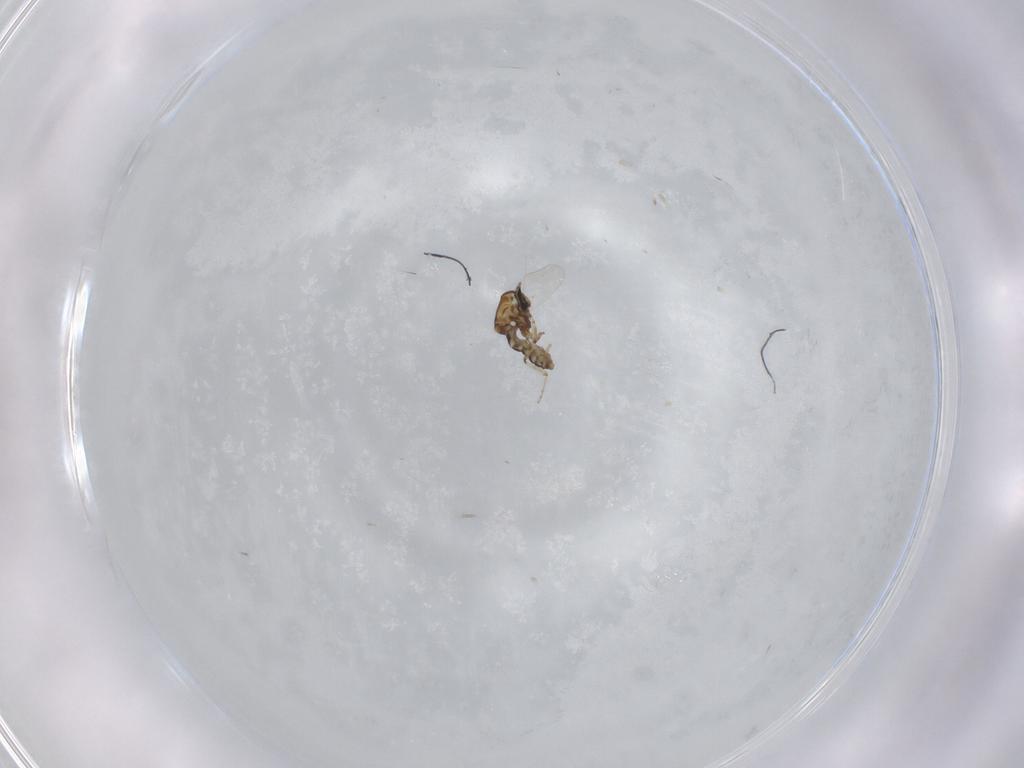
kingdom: Animalia
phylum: Arthropoda
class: Insecta
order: Diptera
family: Ceratopogonidae
